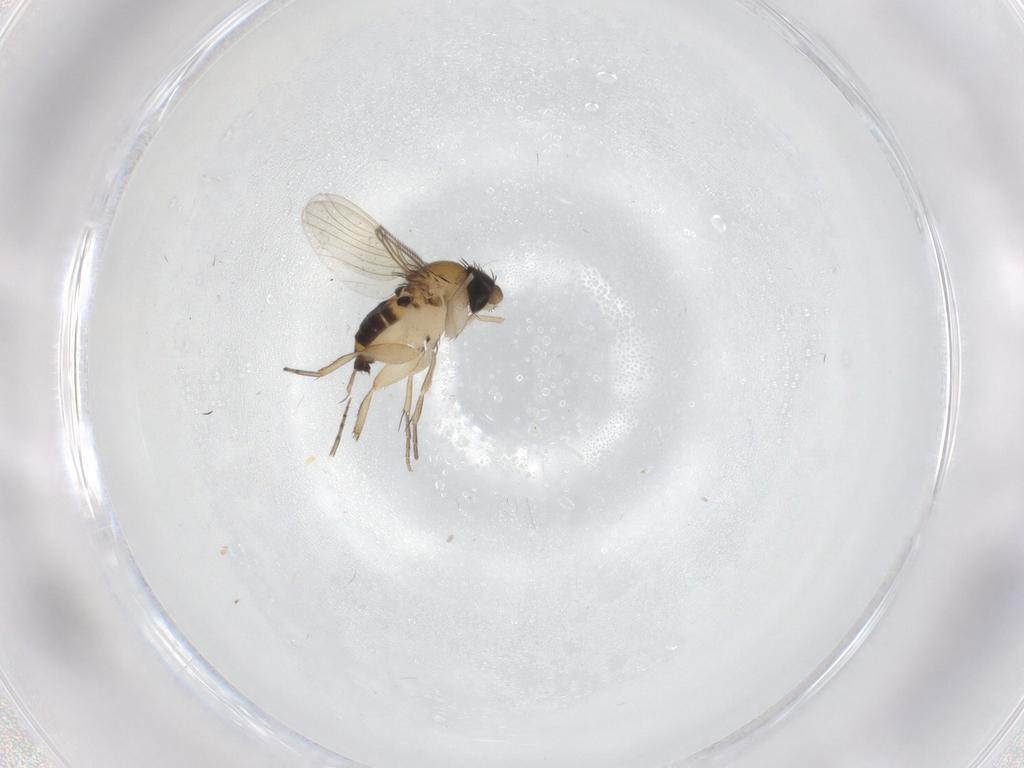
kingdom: Animalia
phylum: Arthropoda
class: Insecta
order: Diptera
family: Phoridae
